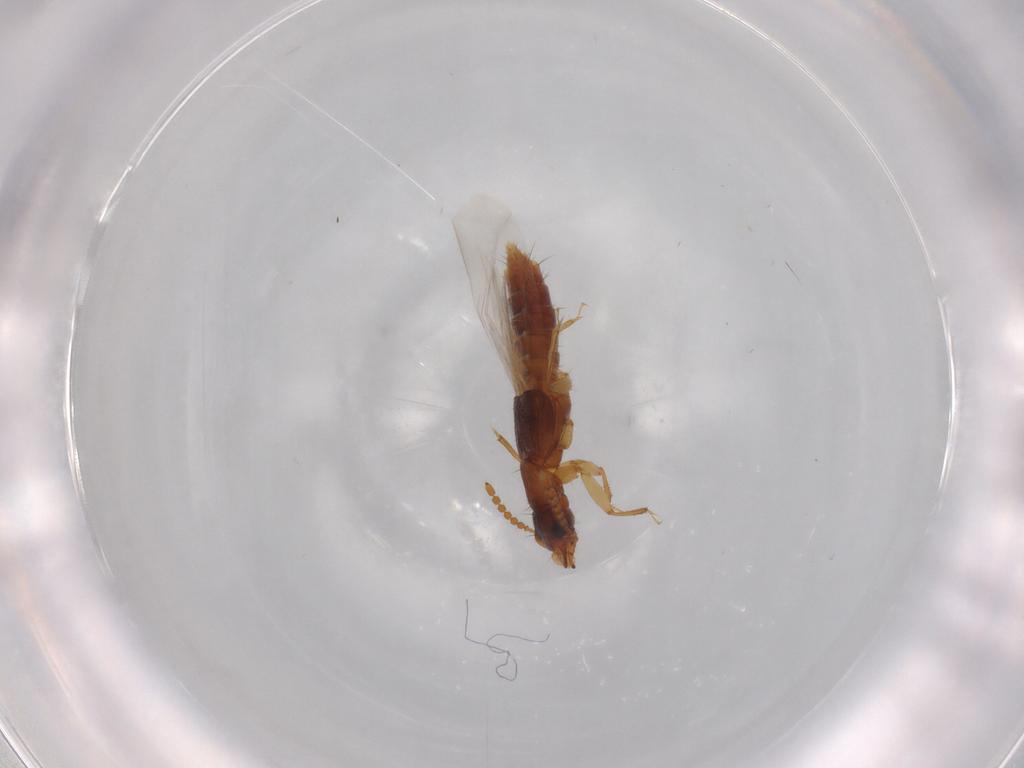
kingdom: Animalia
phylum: Arthropoda
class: Insecta
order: Coleoptera
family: Staphylinidae
